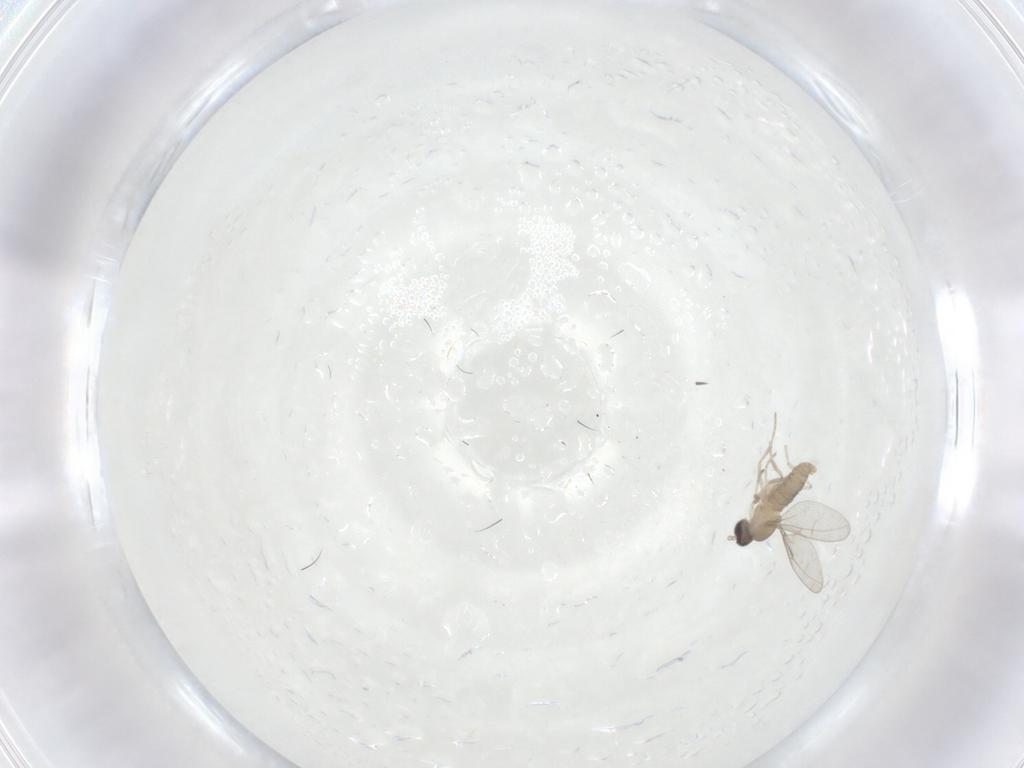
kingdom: Animalia
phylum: Arthropoda
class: Insecta
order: Diptera
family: Cecidomyiidae
